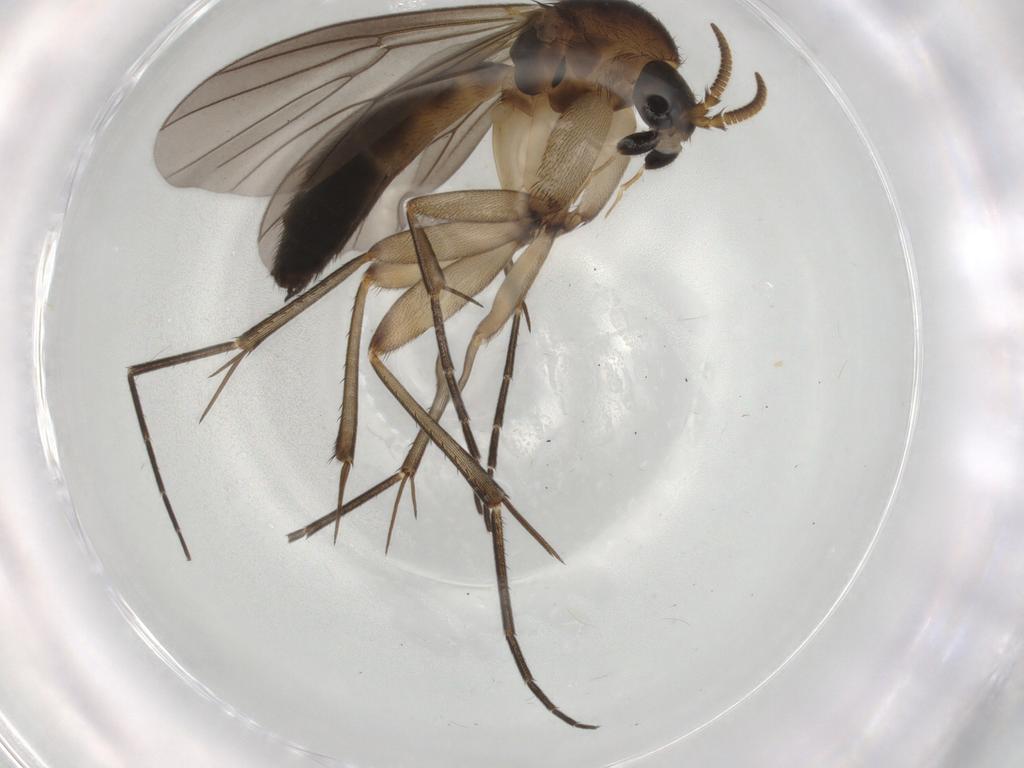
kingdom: Animalia
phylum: Arthropoda
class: Insecta
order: Diptera
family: Mycetophilidae
